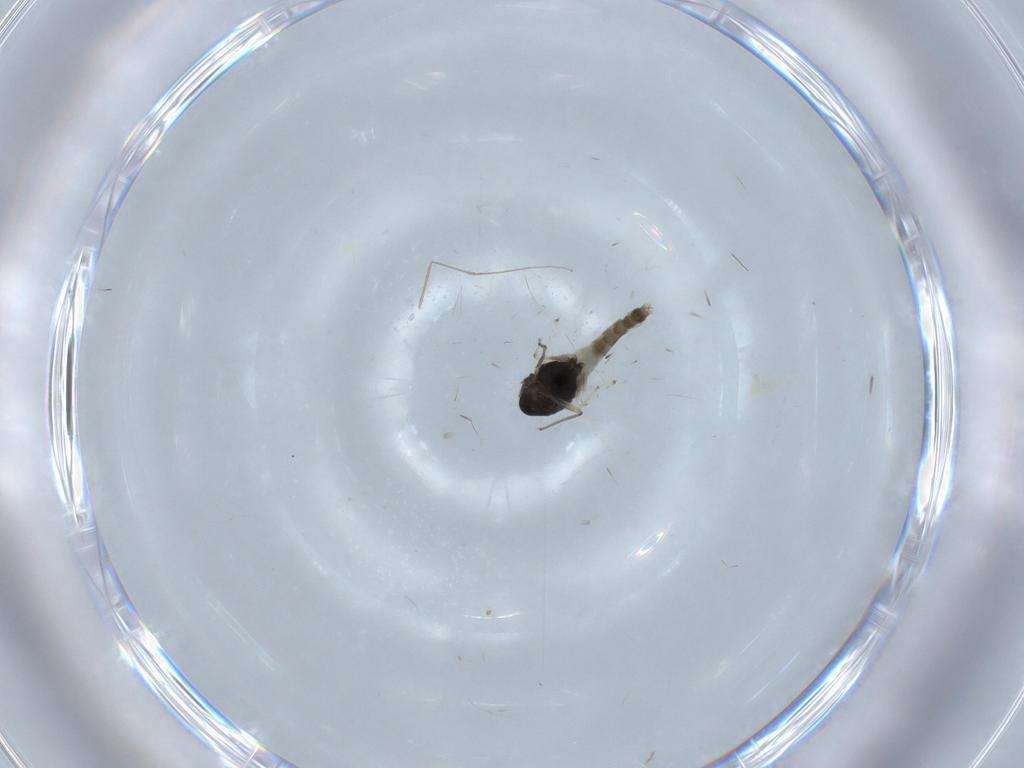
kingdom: Animalia
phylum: Arthropoda
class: Insecta
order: Diptera
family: Chironomidae
